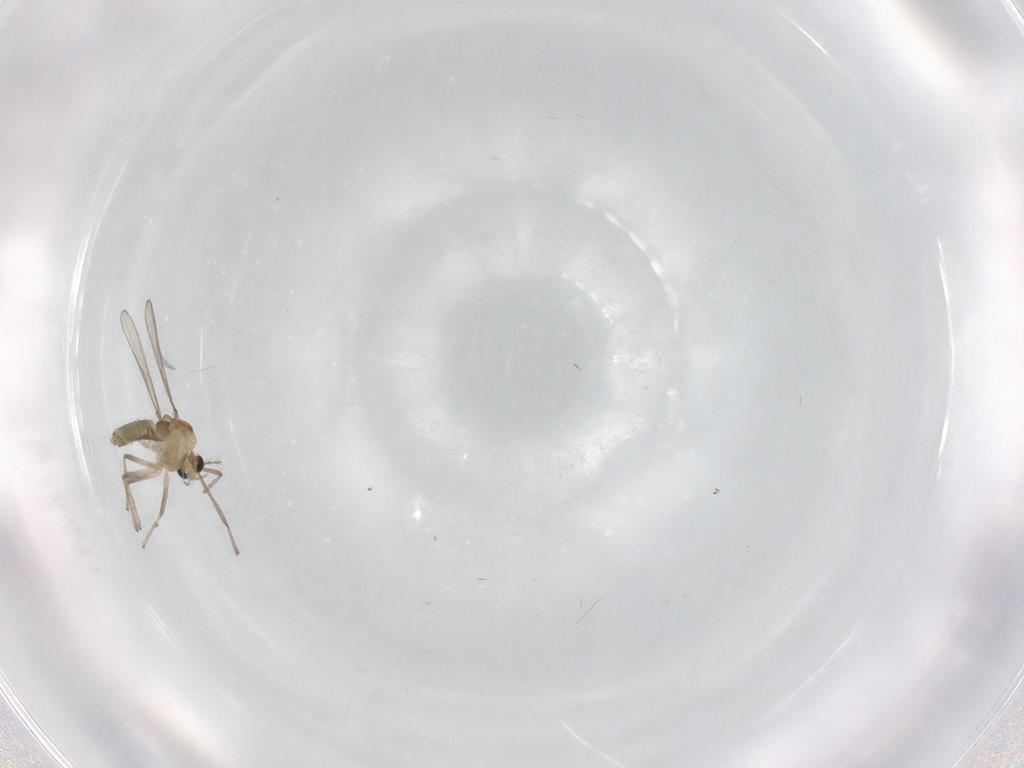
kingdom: Animalia
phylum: Arthropoda
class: Insecta
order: Diptera
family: Chironomidae
